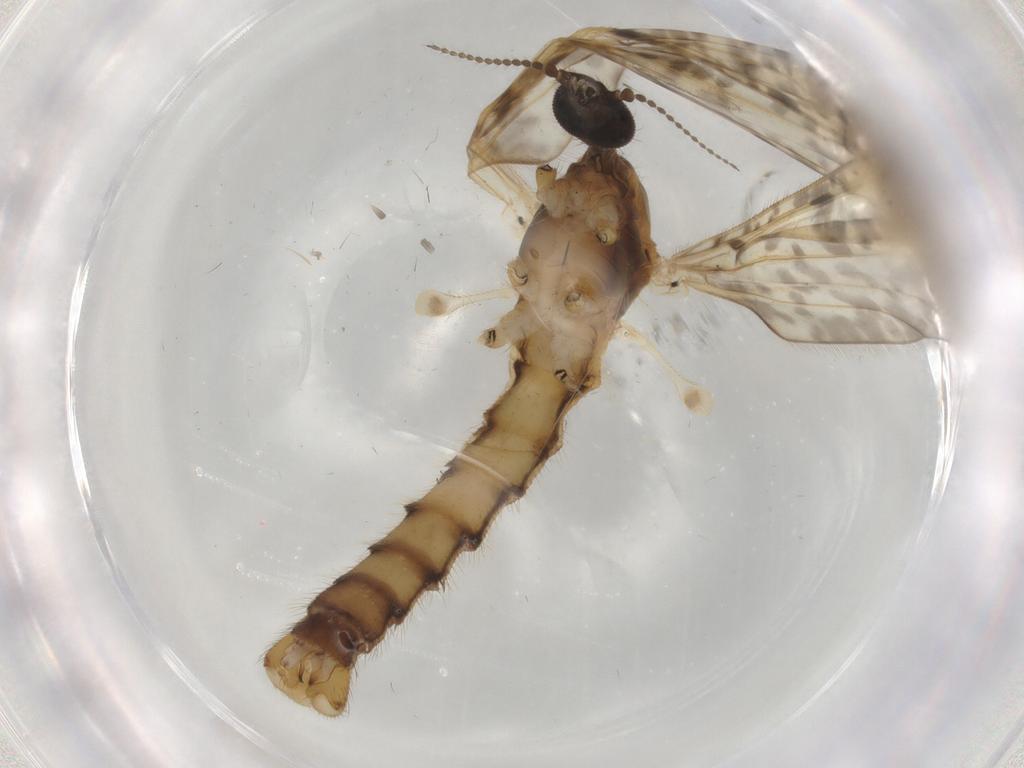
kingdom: Animalia
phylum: Arthropoda
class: Insecta
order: Diptera
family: Limoniidae
